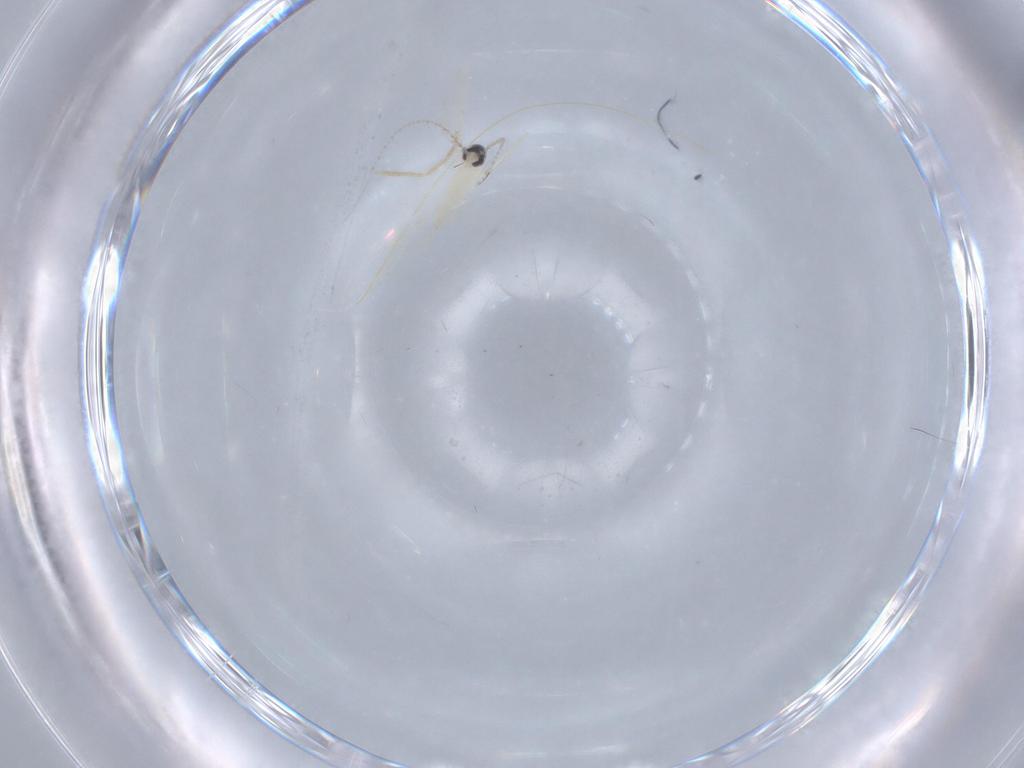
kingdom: Animalia
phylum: Arthropoda
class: Insecta
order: Diptera
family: Cecidomyiidae
